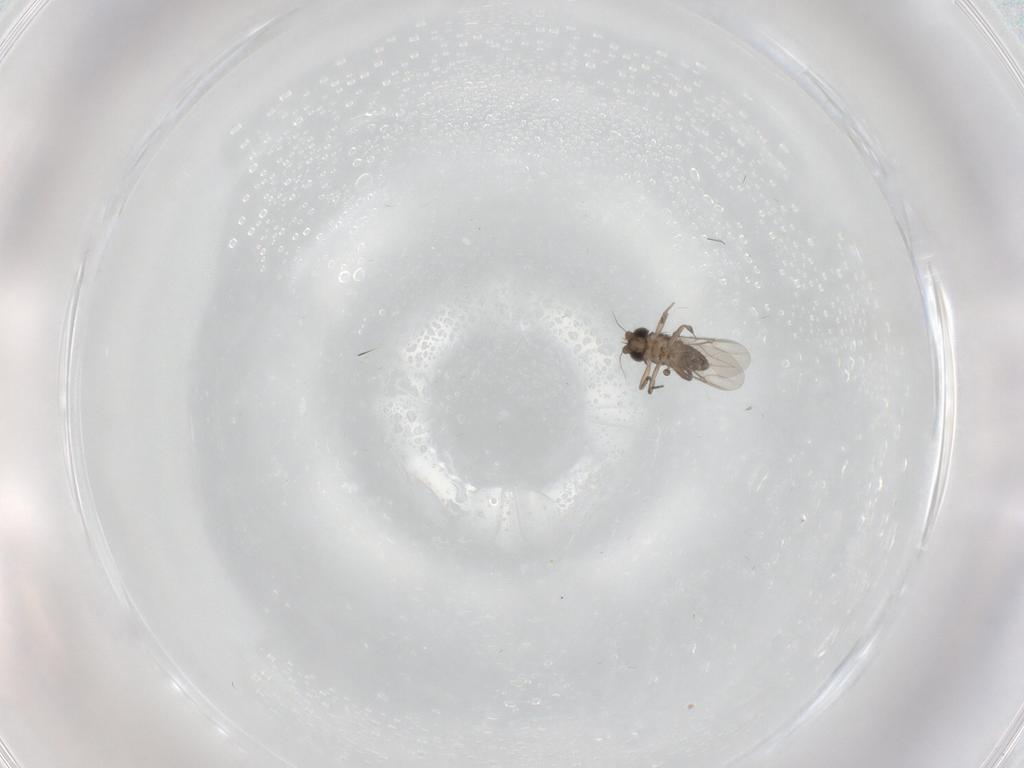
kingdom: Animalia
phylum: Arthropoda
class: Insecta
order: Diptera
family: Phoridae
